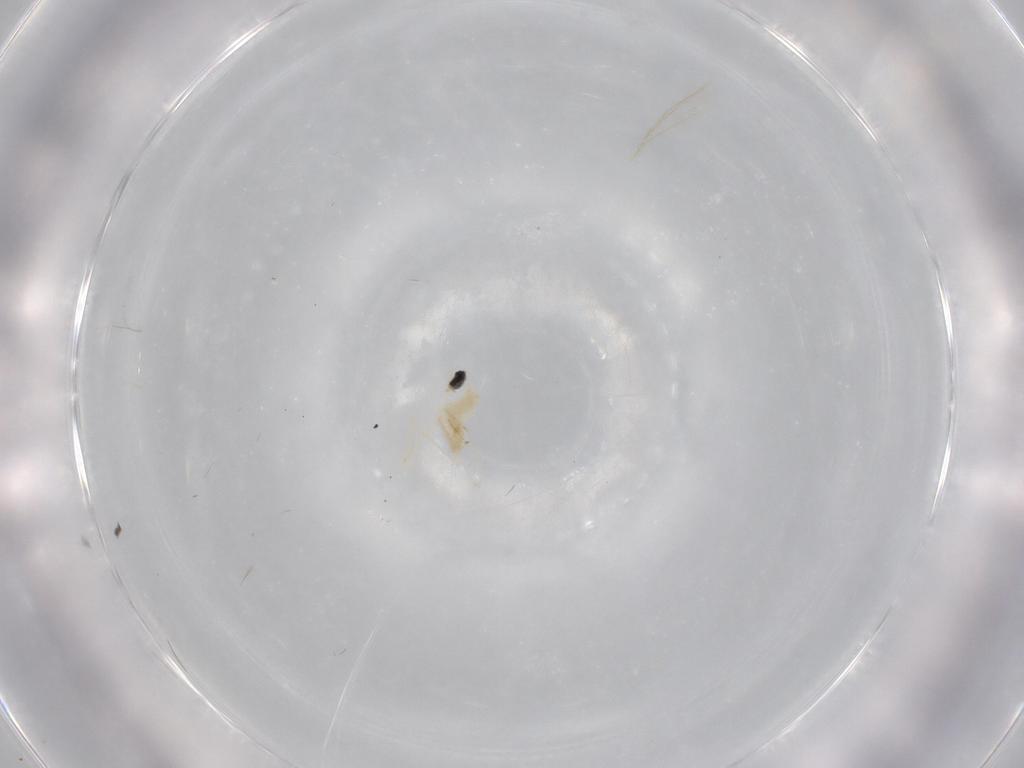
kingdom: Animalia
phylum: Arthropoda
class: Insecta
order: Diptera
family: Cecidomyiidae
